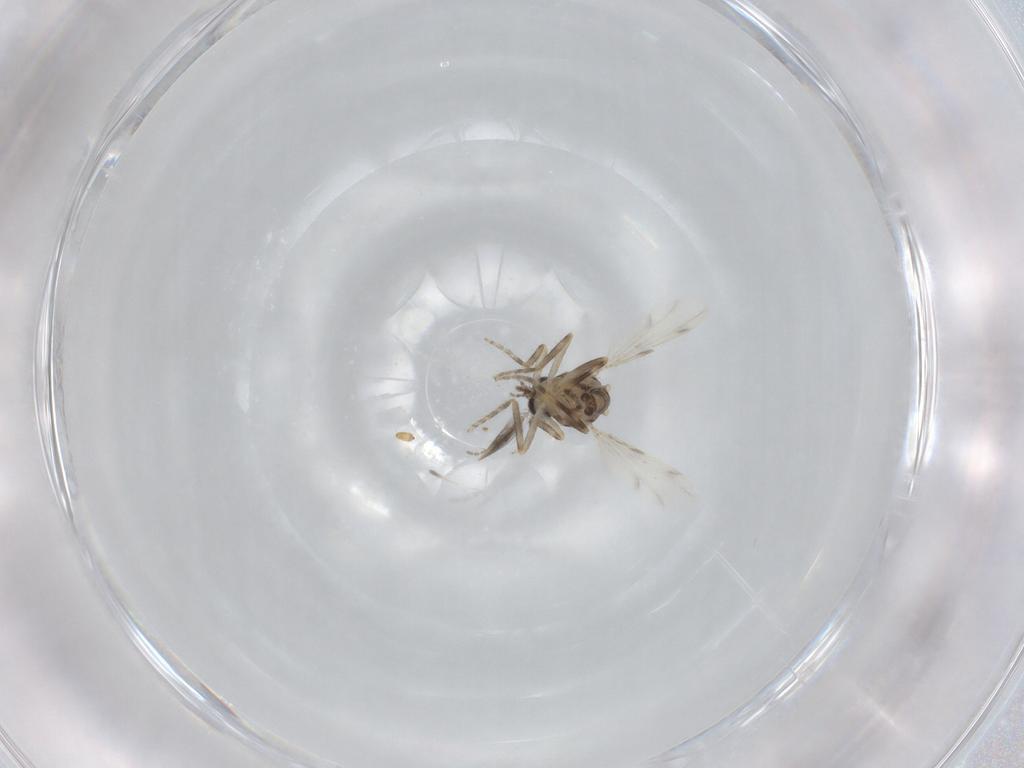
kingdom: Animalia
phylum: Arthropoda
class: Insecta
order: Diptera
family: Ceratopogonidae
